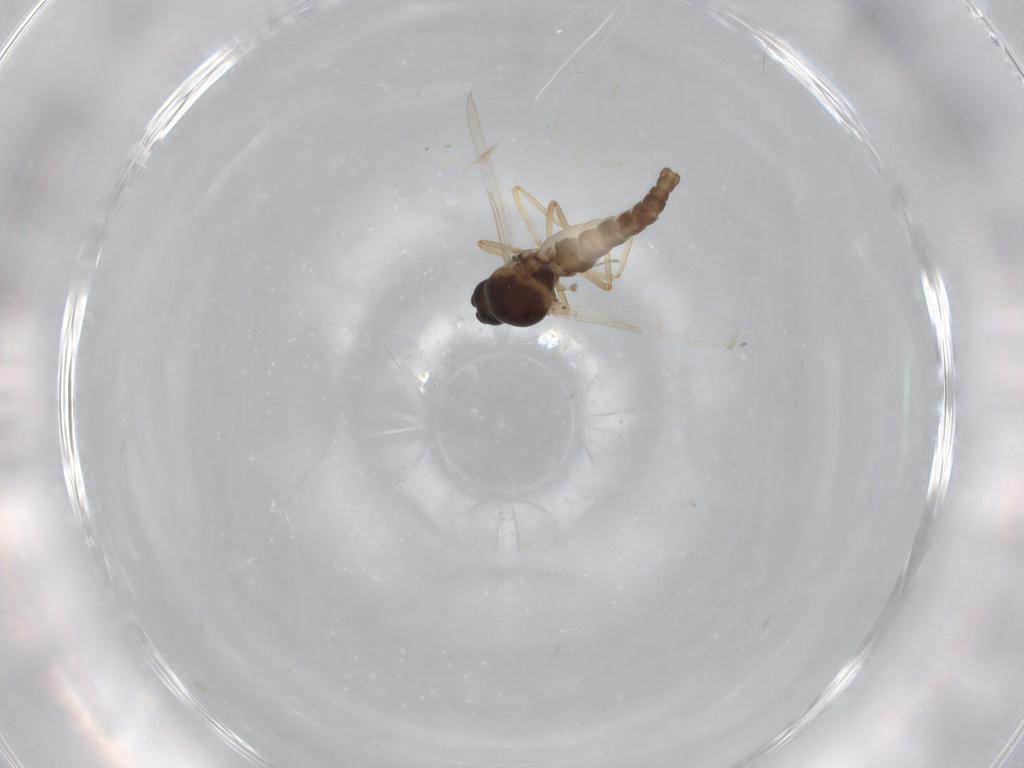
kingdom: Animalia
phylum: Arthropoda
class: Insecta
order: Diptera
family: Ceratopogonidae
